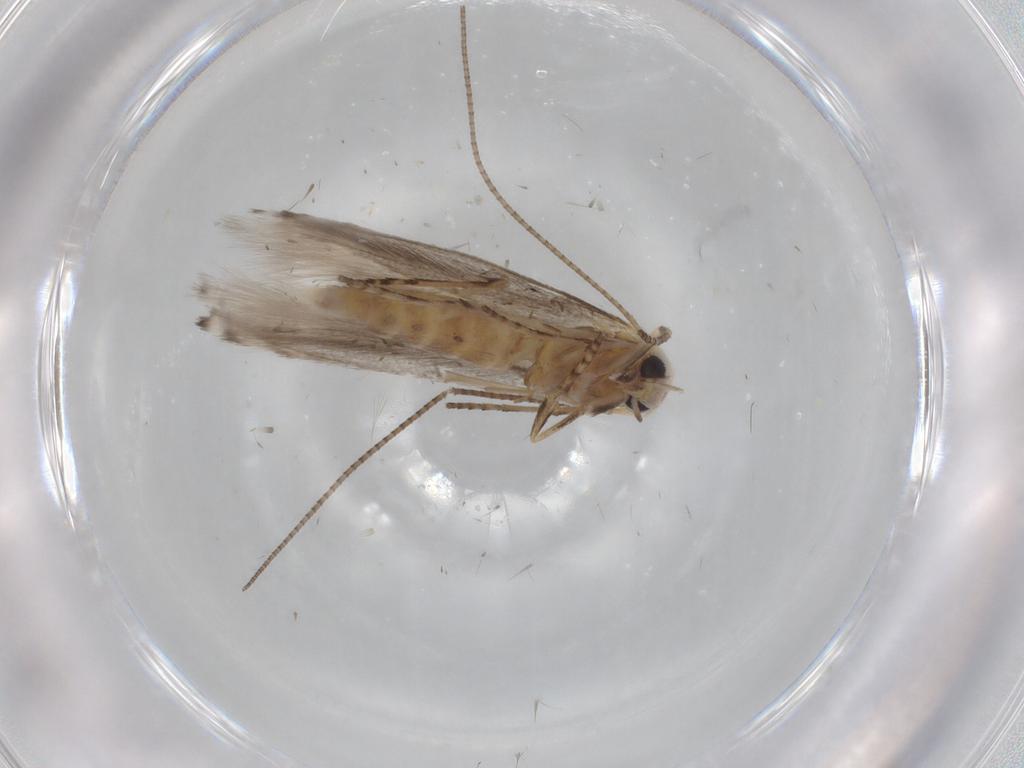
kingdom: Animalia
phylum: Arthropoda
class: Insecta
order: Lepidoptera
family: Lyonetiidae
